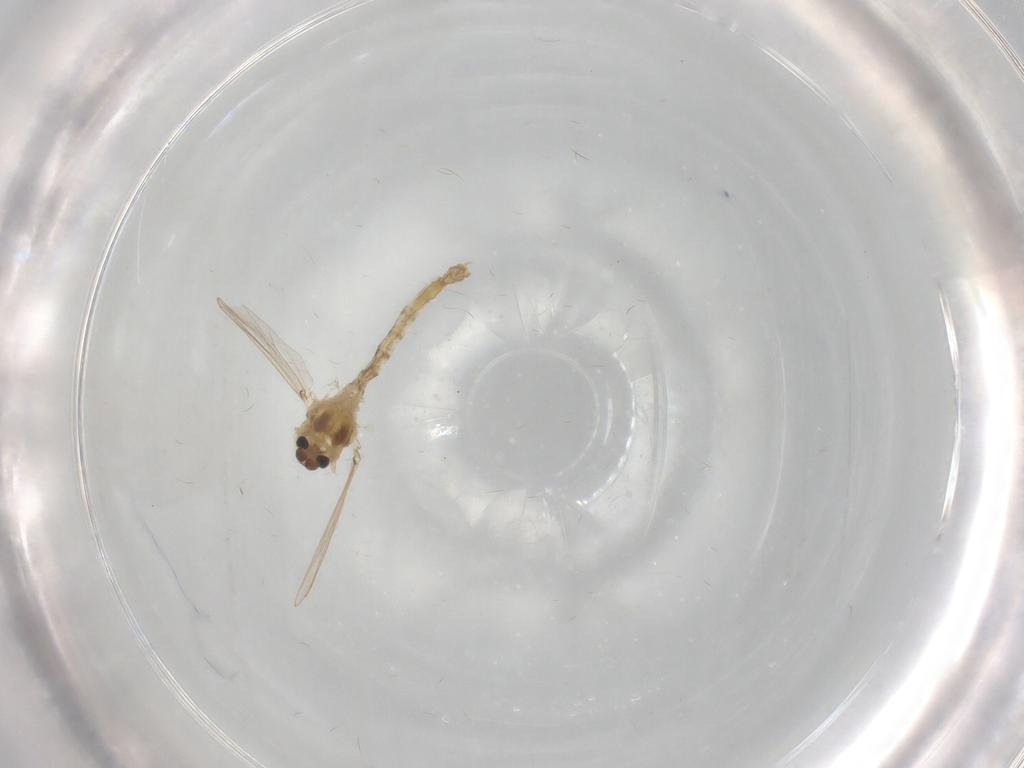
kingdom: Animalia
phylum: Arthropoda
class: Insecta
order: Diptera
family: Chironomidae
